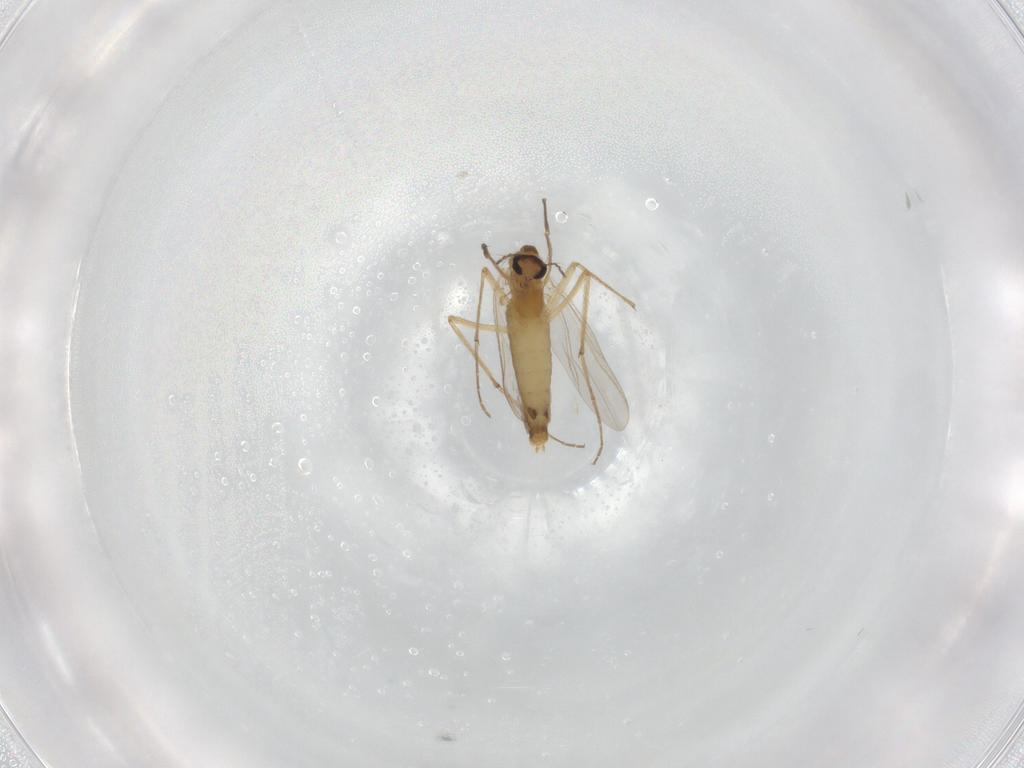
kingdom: Animalia
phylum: Arthropoda
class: Insecta
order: Diptera
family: Chironomidae
